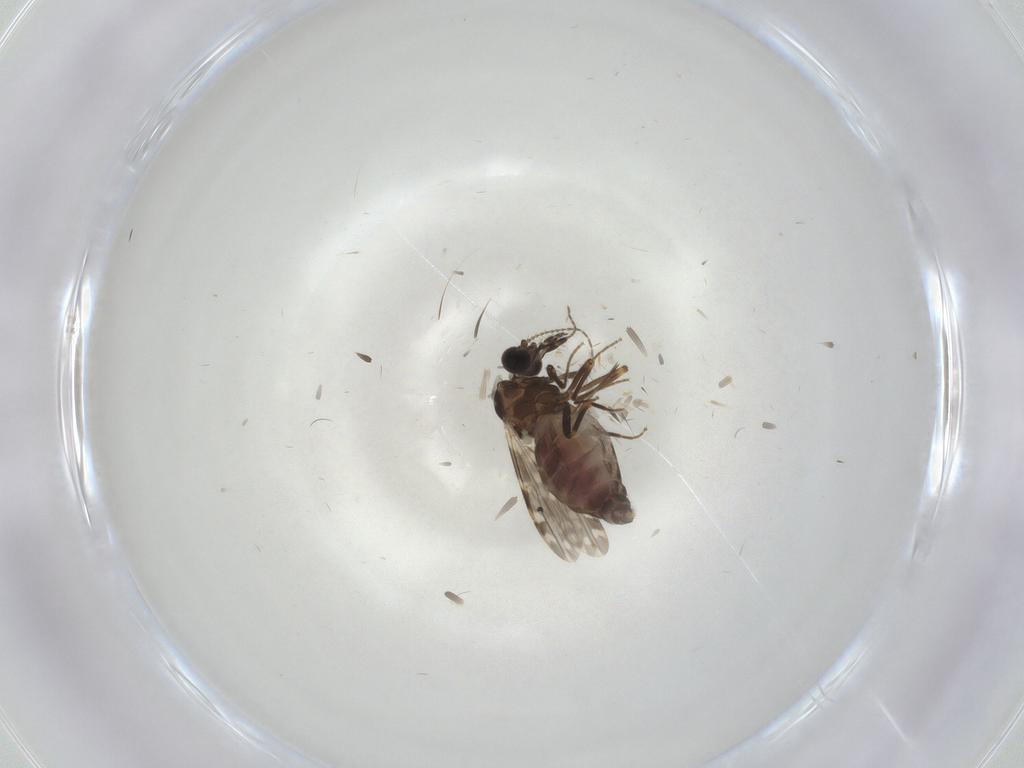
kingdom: Animalia
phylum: Arthropoda
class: Insecta
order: Diptera
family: Ceratopogonidae
